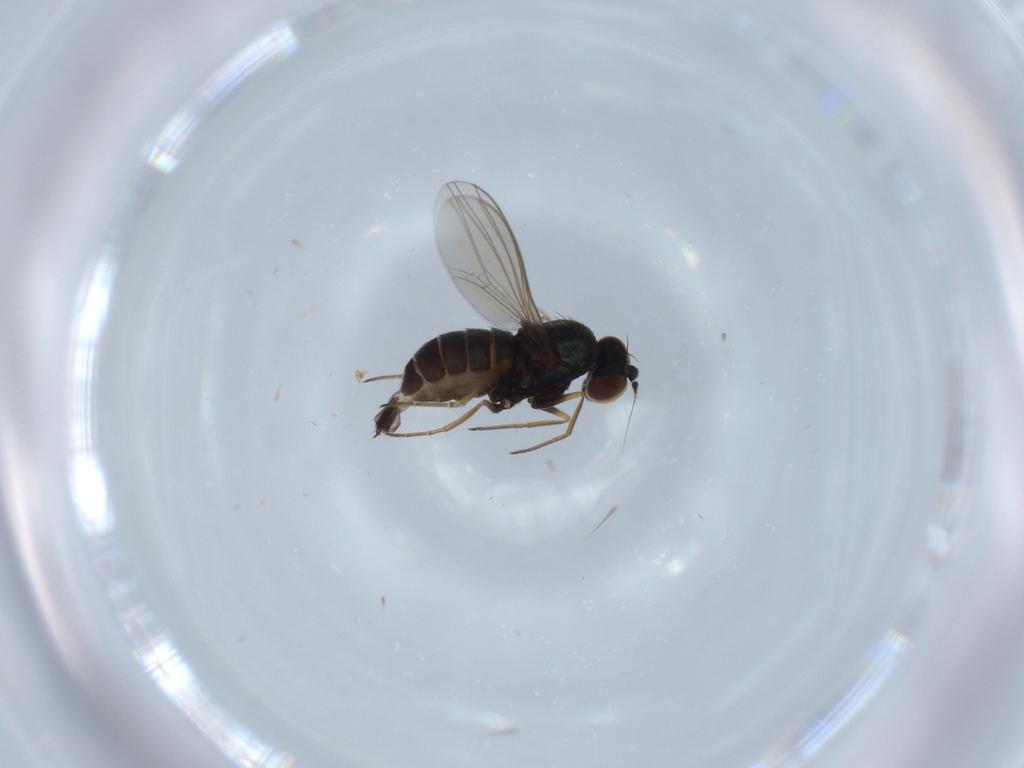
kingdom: Animalia
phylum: Arthropoda
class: Insecta
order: Diptera
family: Dolichopodidae
